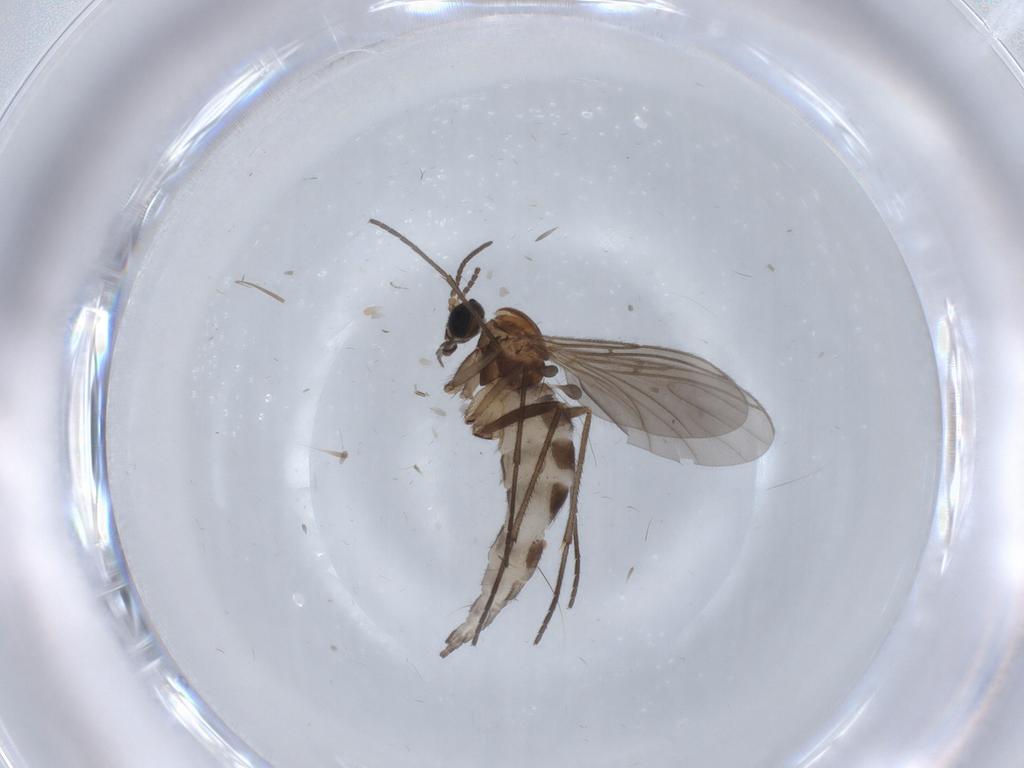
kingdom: Animalia
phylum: Arthropoda
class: Insecta
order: Diptera
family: Sciaridae
